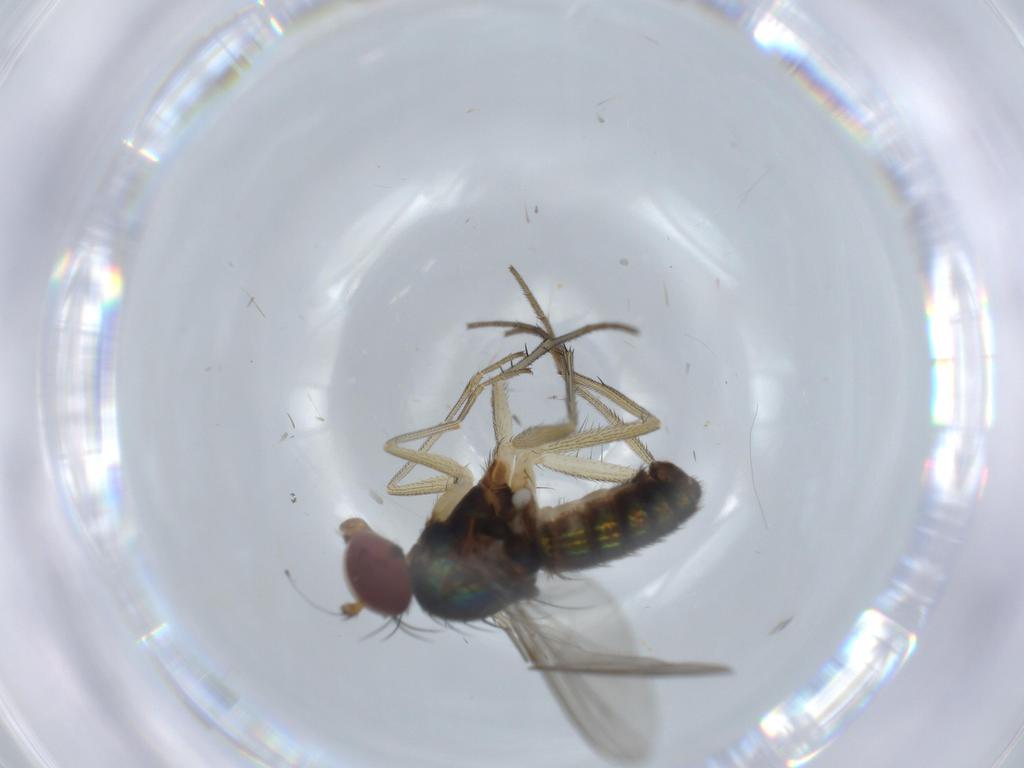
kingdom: Animalia
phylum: Arthropoda
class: Insecta
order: Diptera
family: Dolichopodidae
